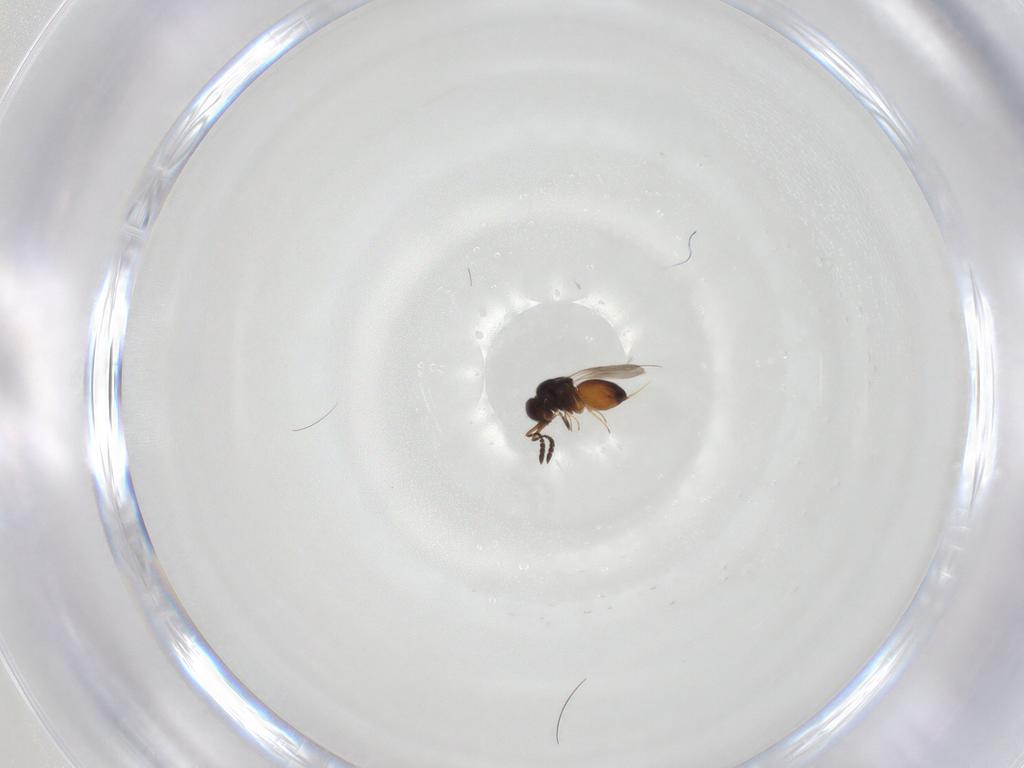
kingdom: Animalia
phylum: Arthropoda
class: Insecta
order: Hymenoptera
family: Ceraphronidae
